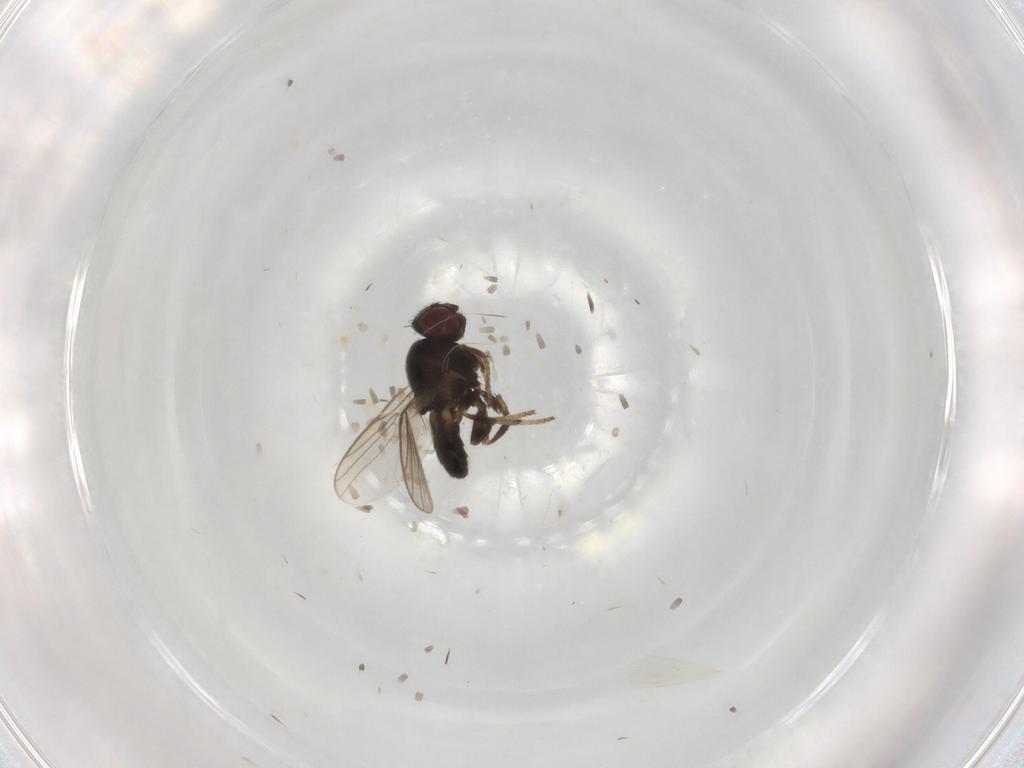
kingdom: Animalia
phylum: Arthropoda
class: Insecta
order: Diptera
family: Chloropidae
